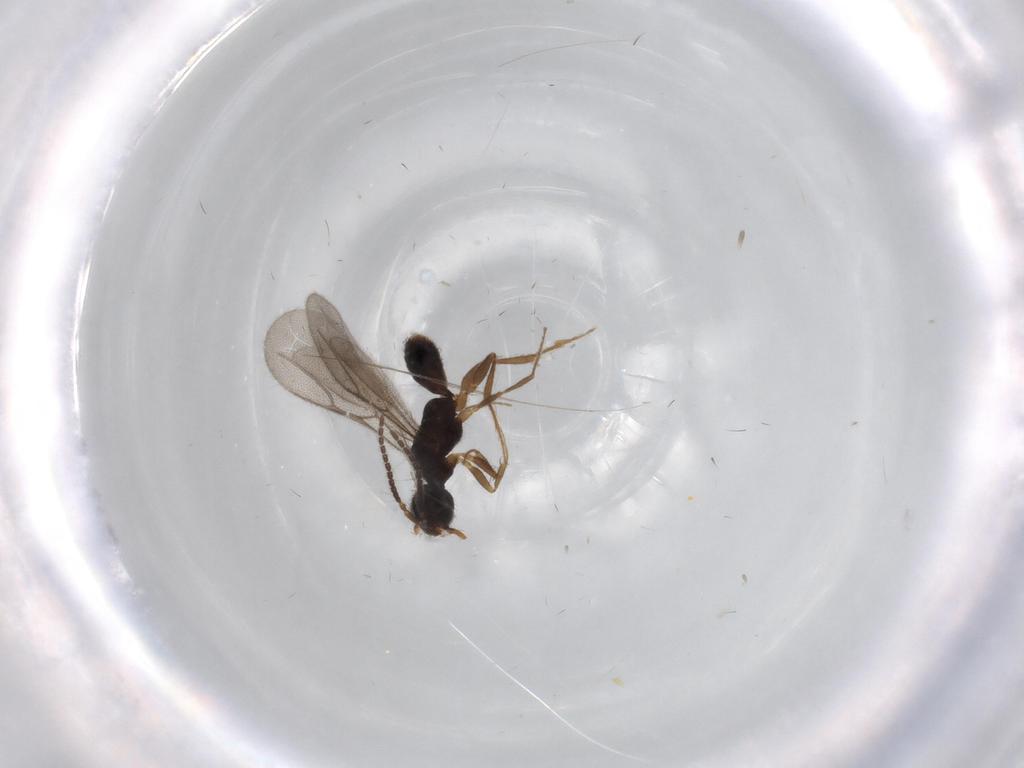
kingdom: Animalia
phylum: Arthropoda
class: Insecta
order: Hymenoptera
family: Bethylidae
